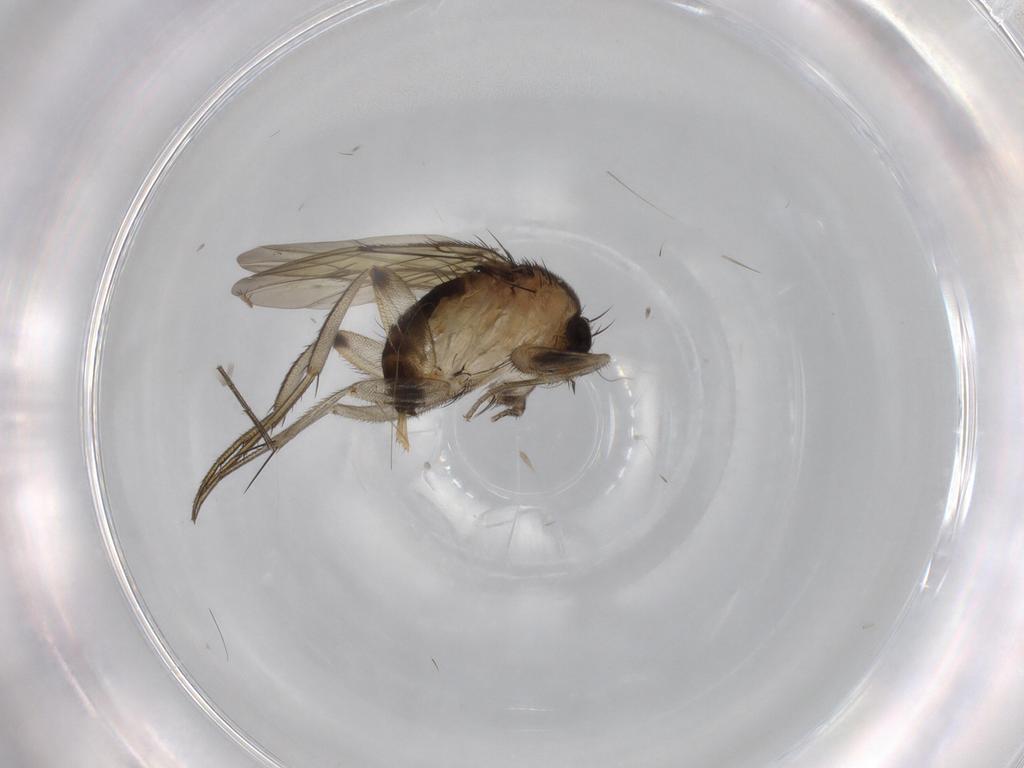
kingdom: Animalia
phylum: Arthropoda
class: Insecta
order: Diptera
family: Phoridae
